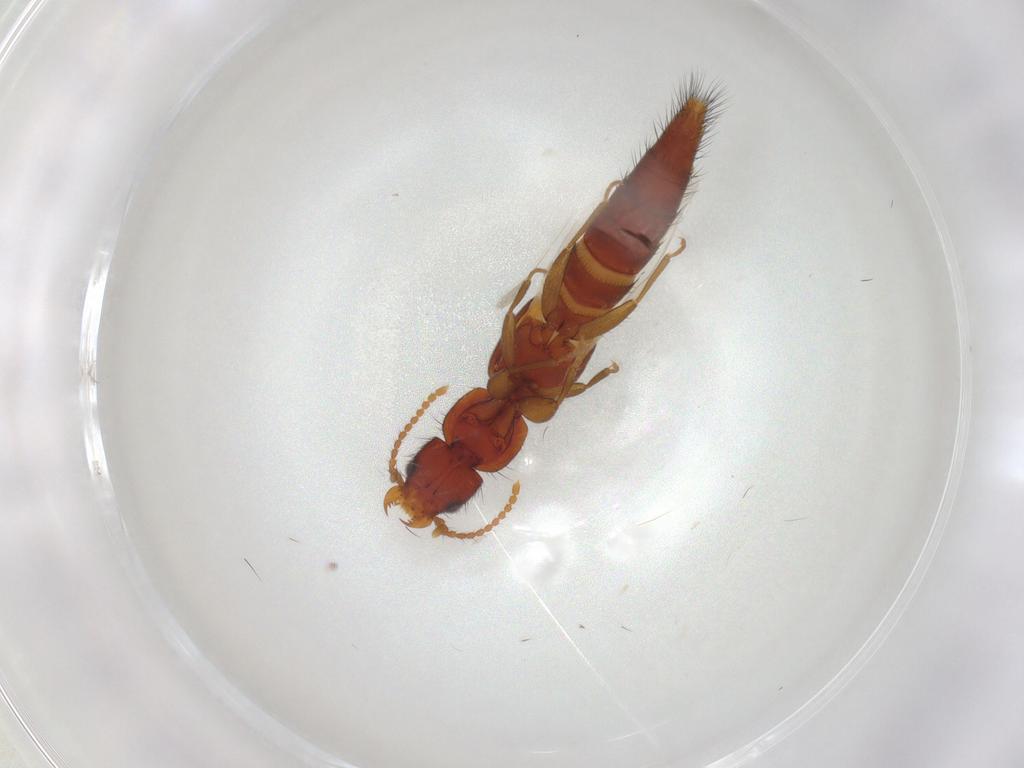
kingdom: Animalia
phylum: Arthropoda
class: Insecta
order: Coleoptera
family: Staphylinidae
